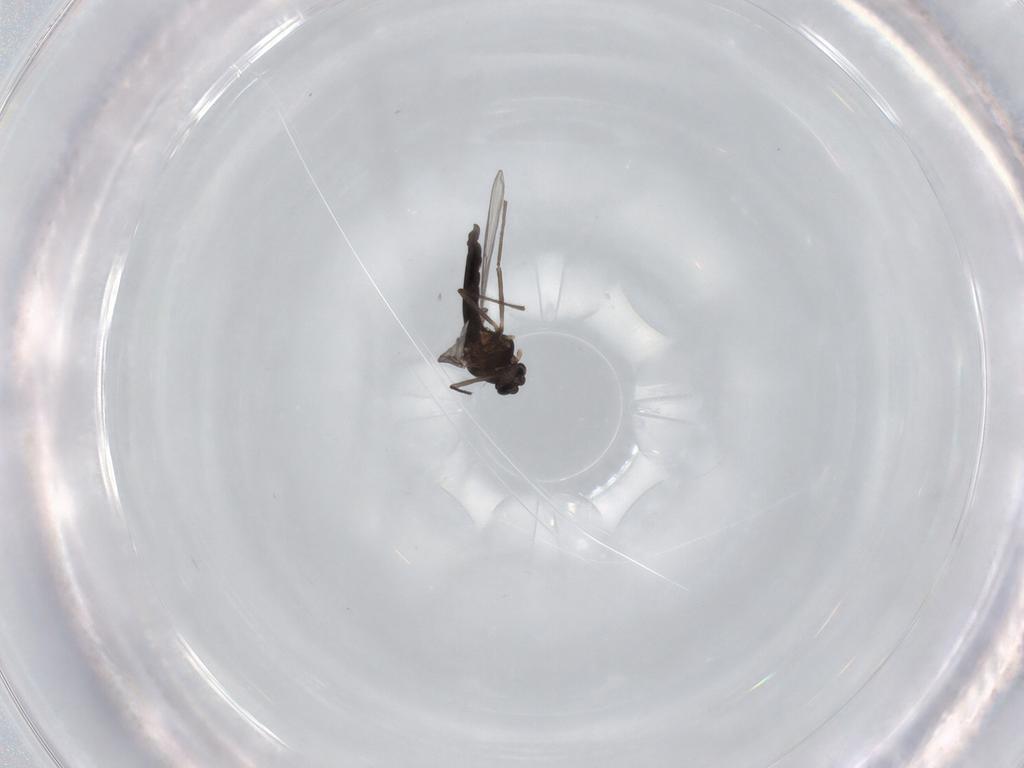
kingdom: Animalia
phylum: Arthropoda
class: Insecta
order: Diptera
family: Chironomidae
